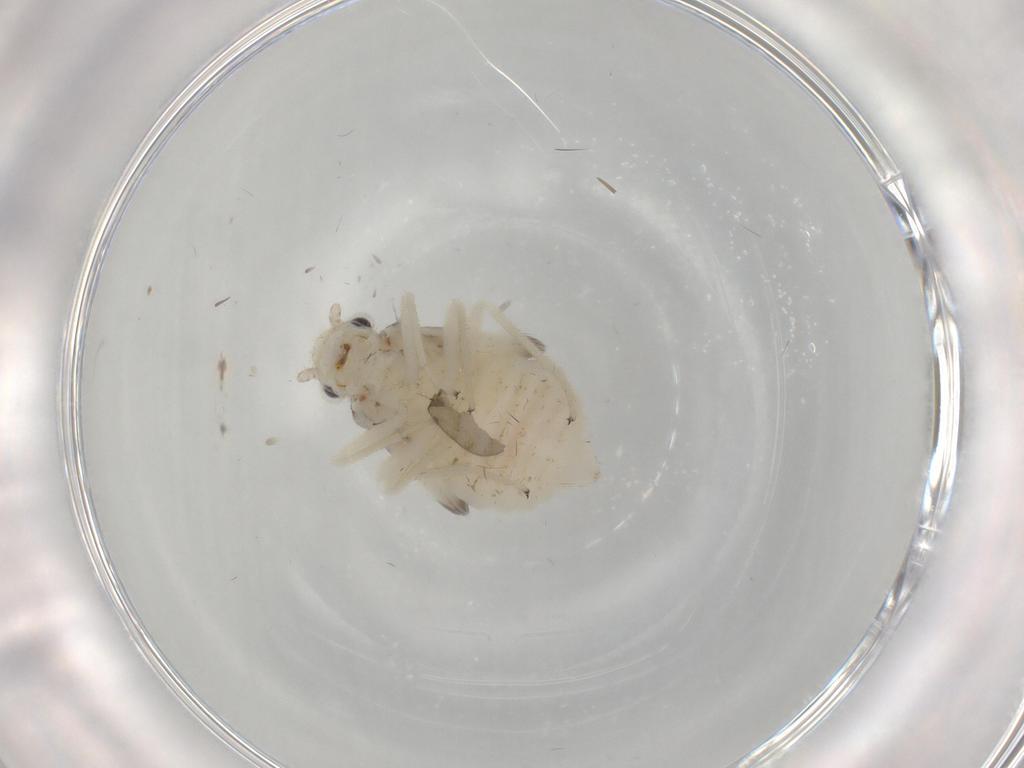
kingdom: Animalia
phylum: Arthropoda
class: Insecta
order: Psocodea
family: Amphipsocidae
